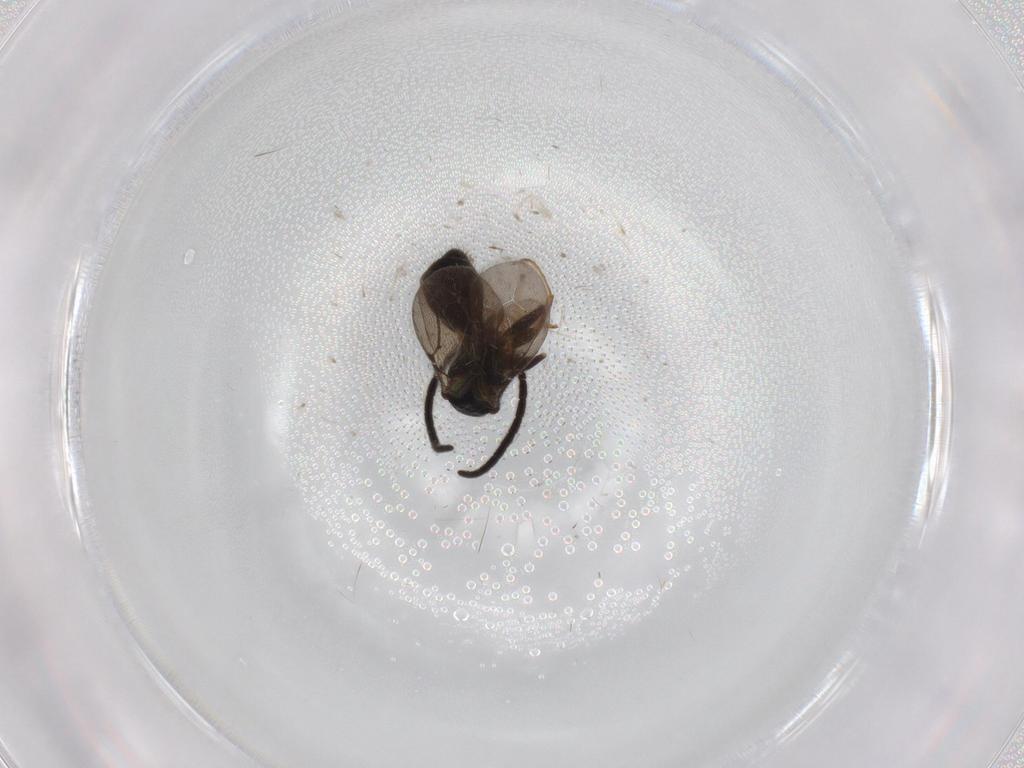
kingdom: Animalia
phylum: Arthropoda
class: Insecta
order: Hymenoptera
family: Bethylidae
